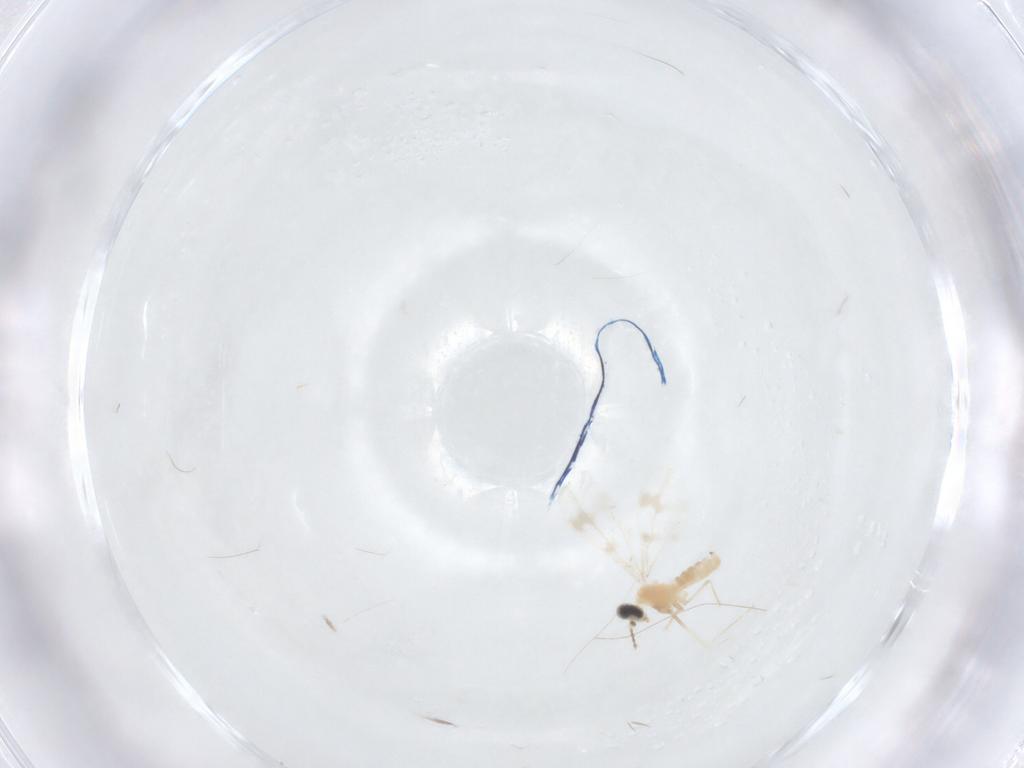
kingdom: Animalia
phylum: Arthropoda
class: Insecta
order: Diptera
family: Cecidomyiidae
